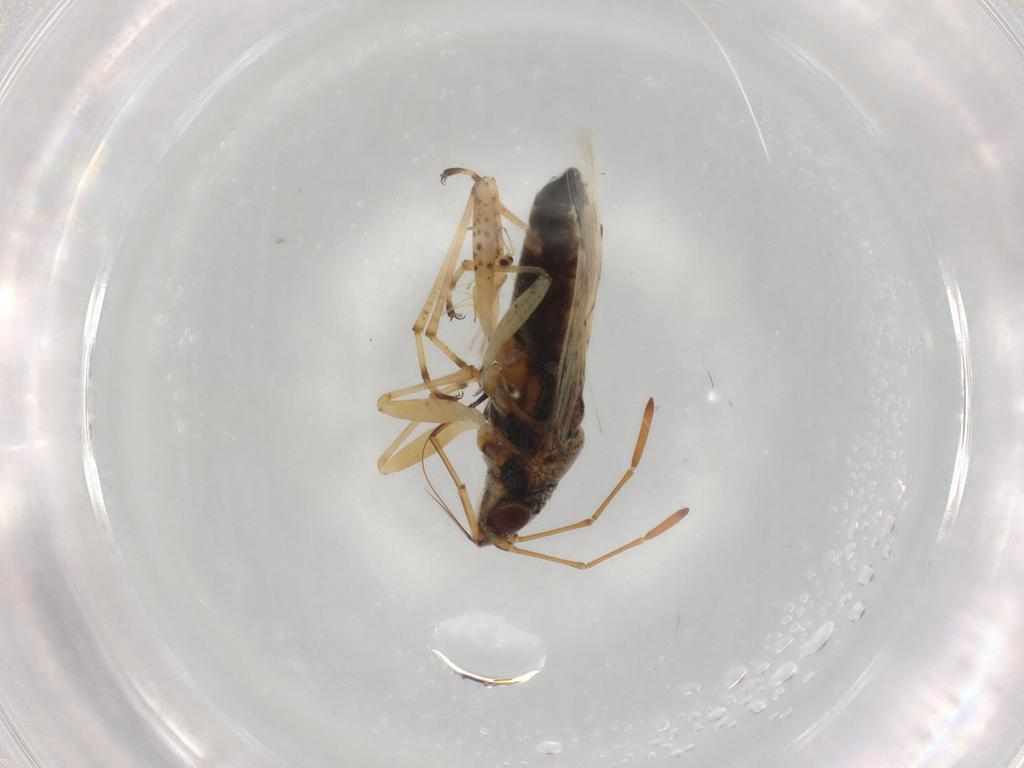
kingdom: Animalia
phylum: Arthropoda
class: Insecta
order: Hemiptera
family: Lygaeidae
